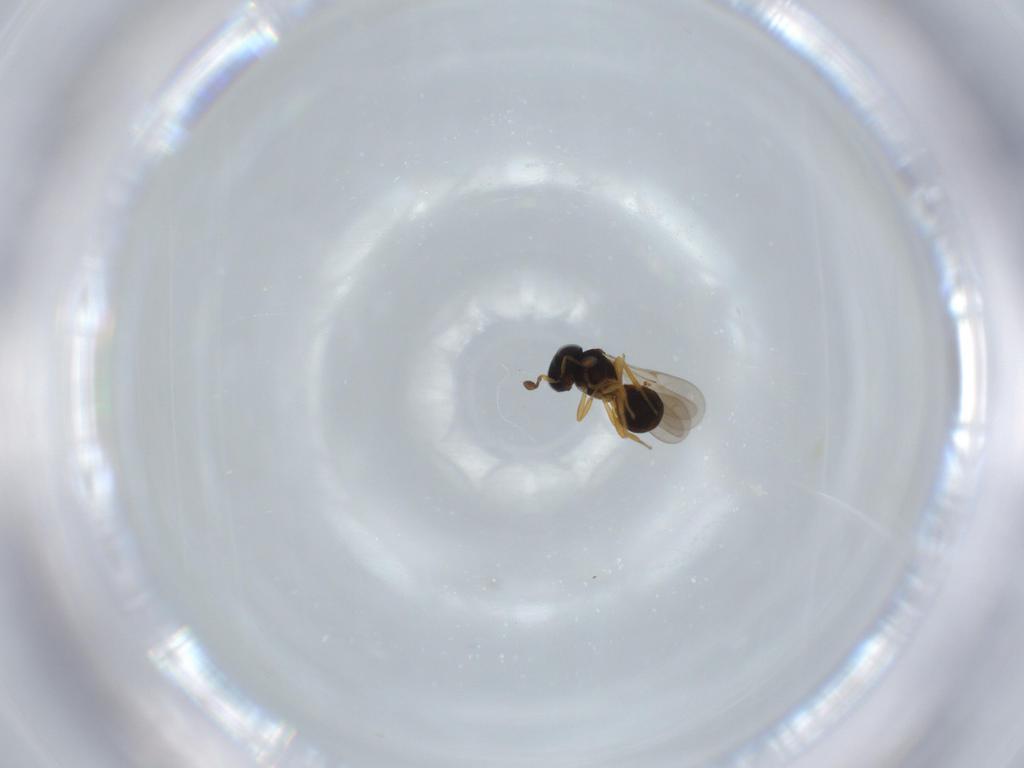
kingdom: Animalia
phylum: Arthropoda
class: Insecta
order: Hymenoptera
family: Scelionidae
